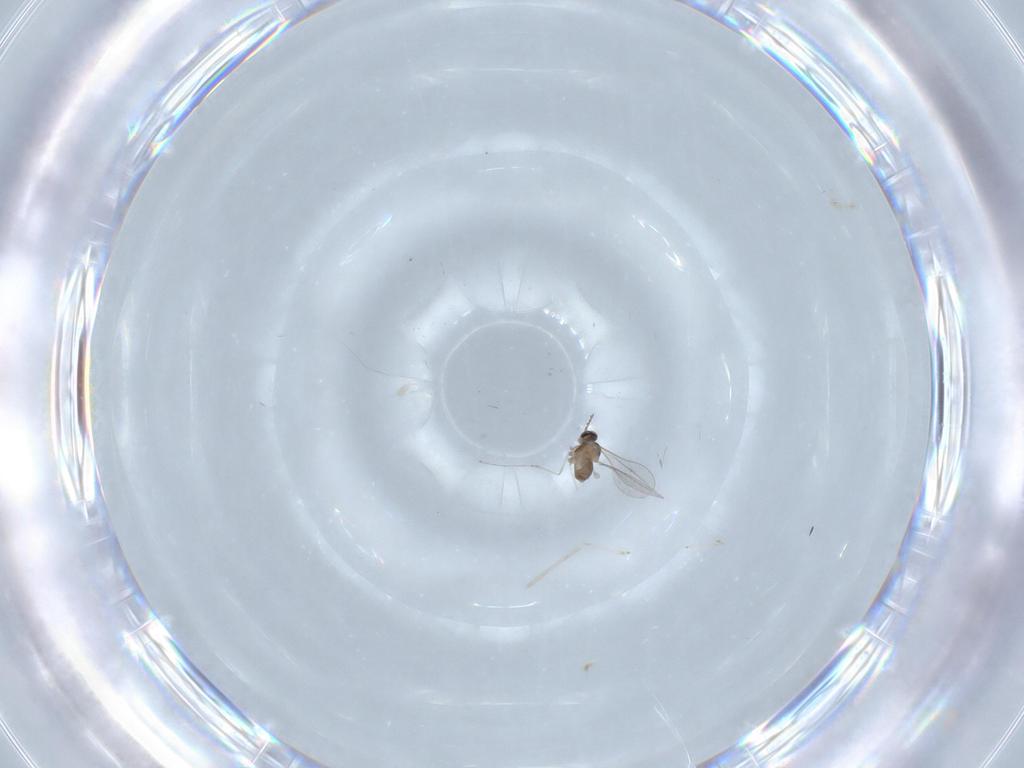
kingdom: Animalia
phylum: Arthropoda
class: Insecta
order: Diptera
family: Cecidomyiidae
